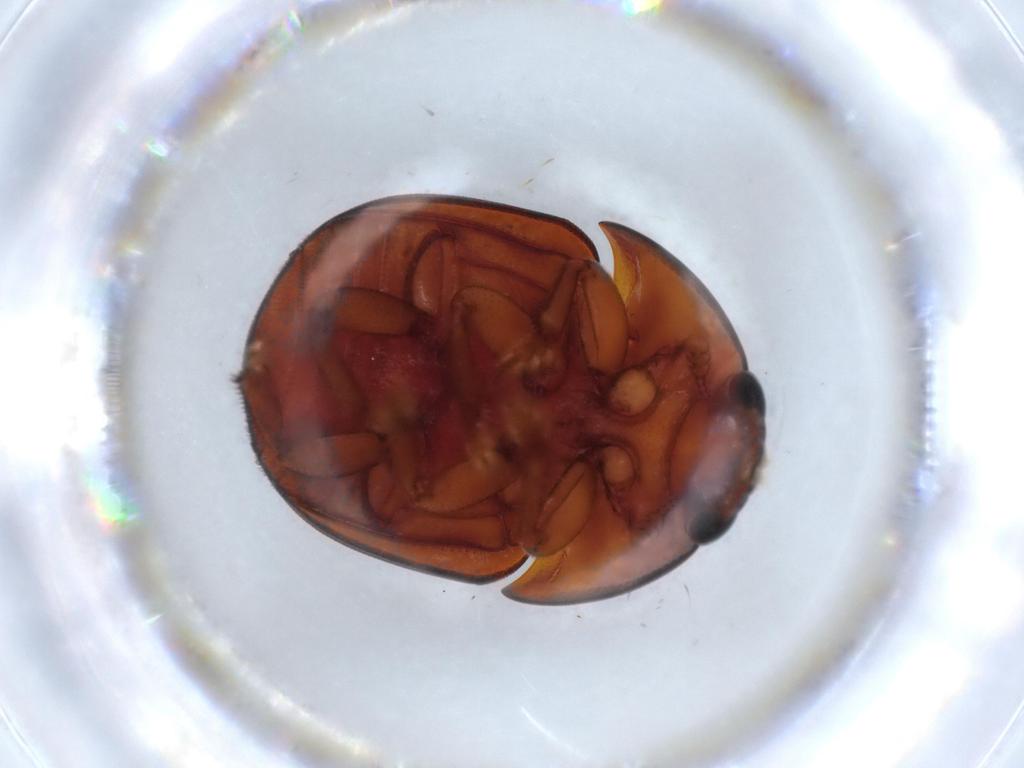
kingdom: Animalia
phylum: Arthropoda
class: Insecta
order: Coleoptera
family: Nitidulidae
